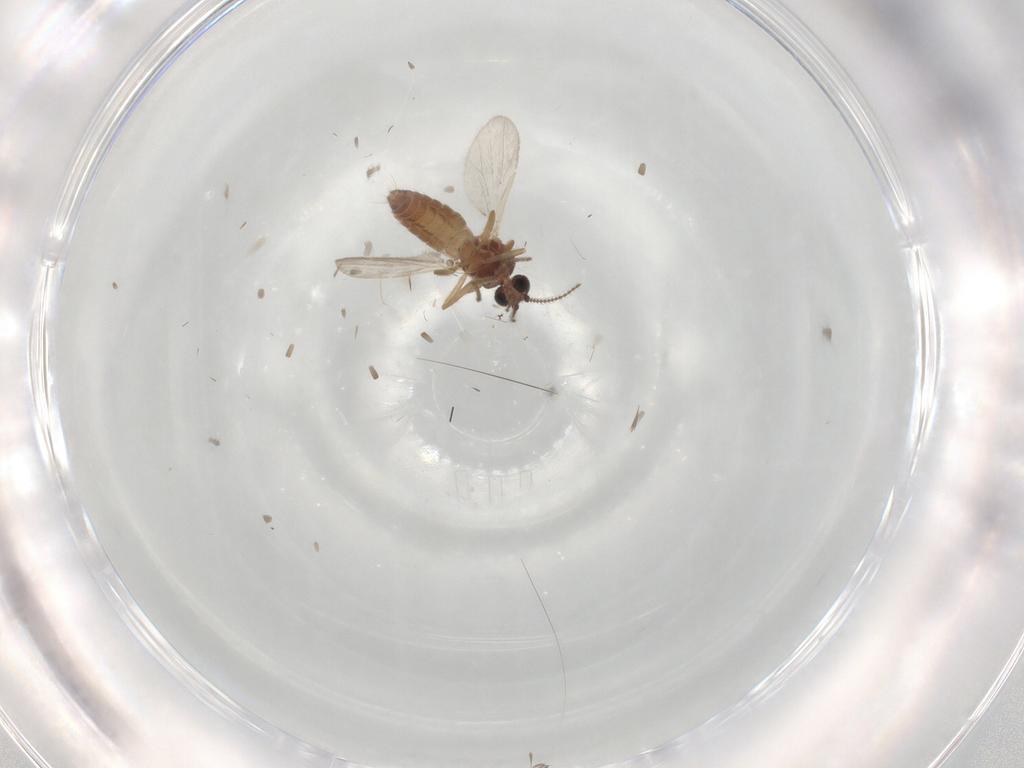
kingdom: Animalia
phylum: Arthropoda
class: Insecta
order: Diptera
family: Ceratopogonidae
